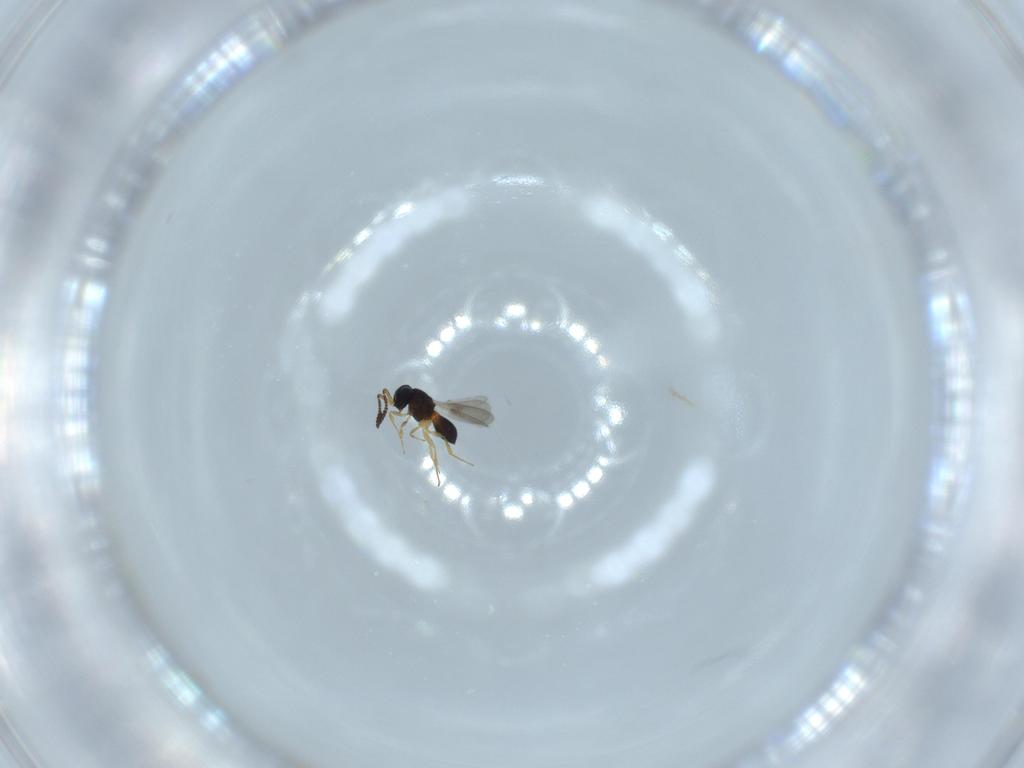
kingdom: Animalia
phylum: Arthropoda
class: Insecta
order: Hymenoptera
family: Scelionidae
